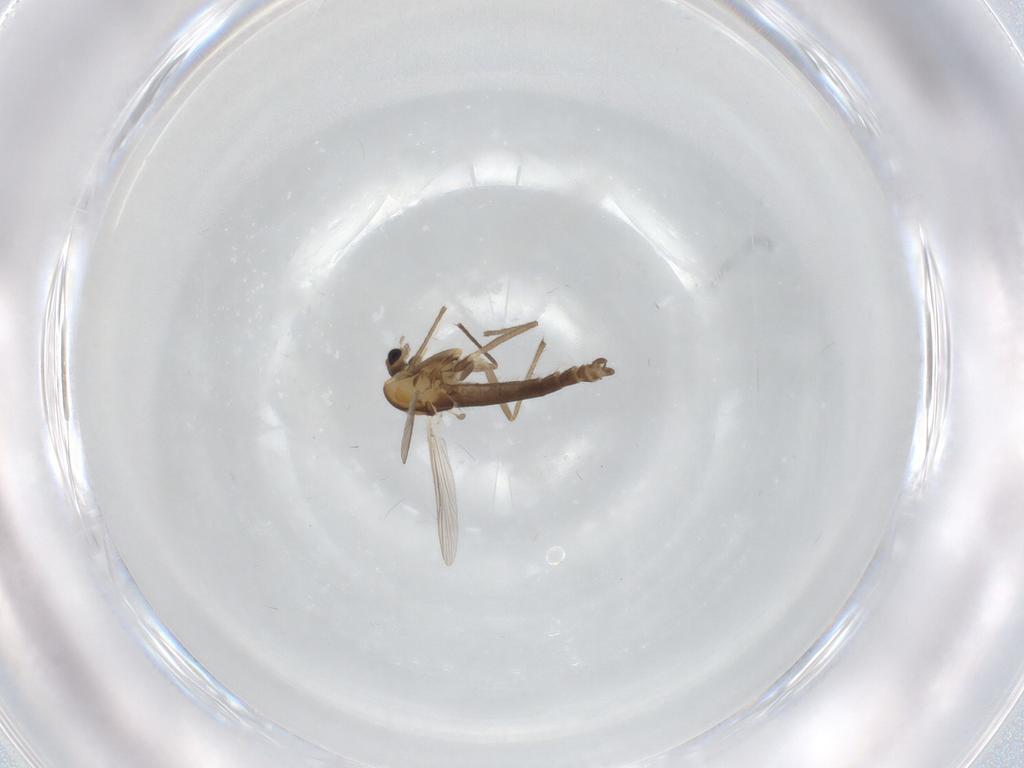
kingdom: Animalia
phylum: Arthropoda
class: Insecta
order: Diptera
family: Chironomidae
